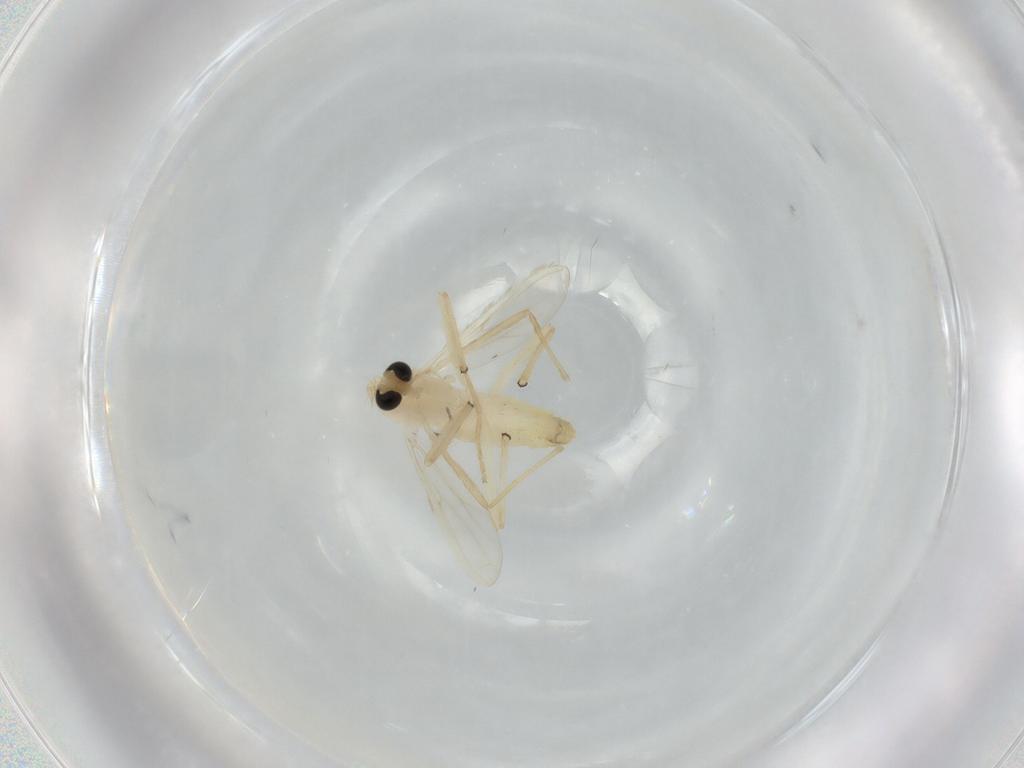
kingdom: Animalia
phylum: Arthropoda
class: Insecta
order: Diptera
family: Chironomidae
